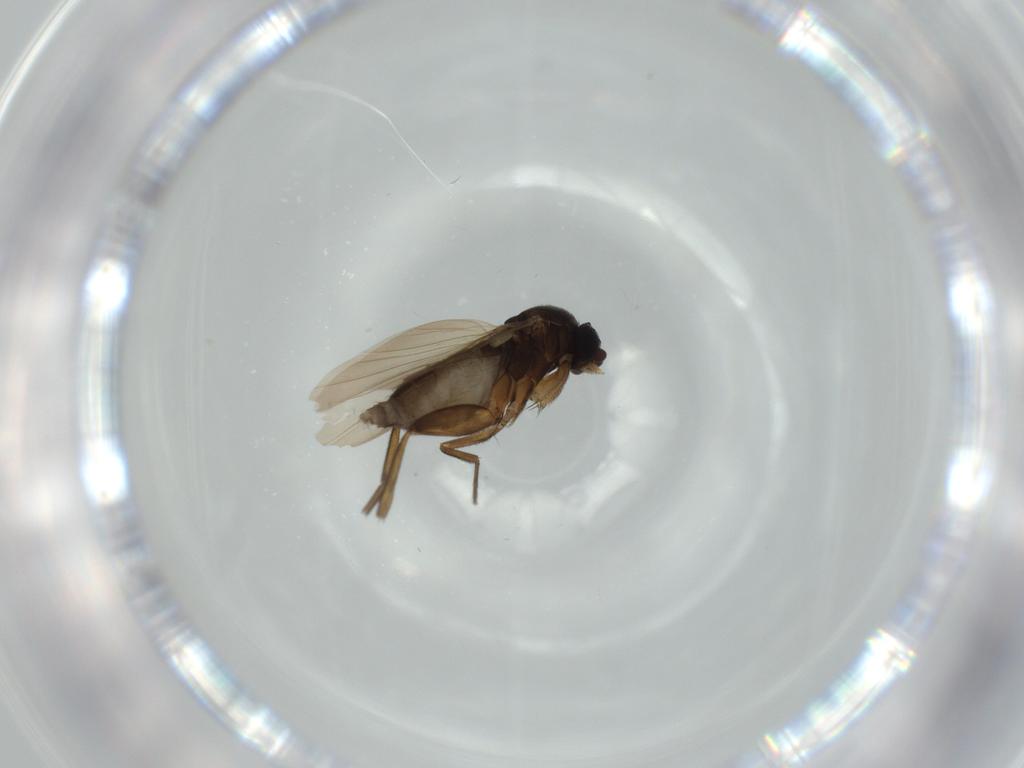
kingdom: Animalia
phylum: Arthropoda
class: Insecta
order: Diptera
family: Phoridae
